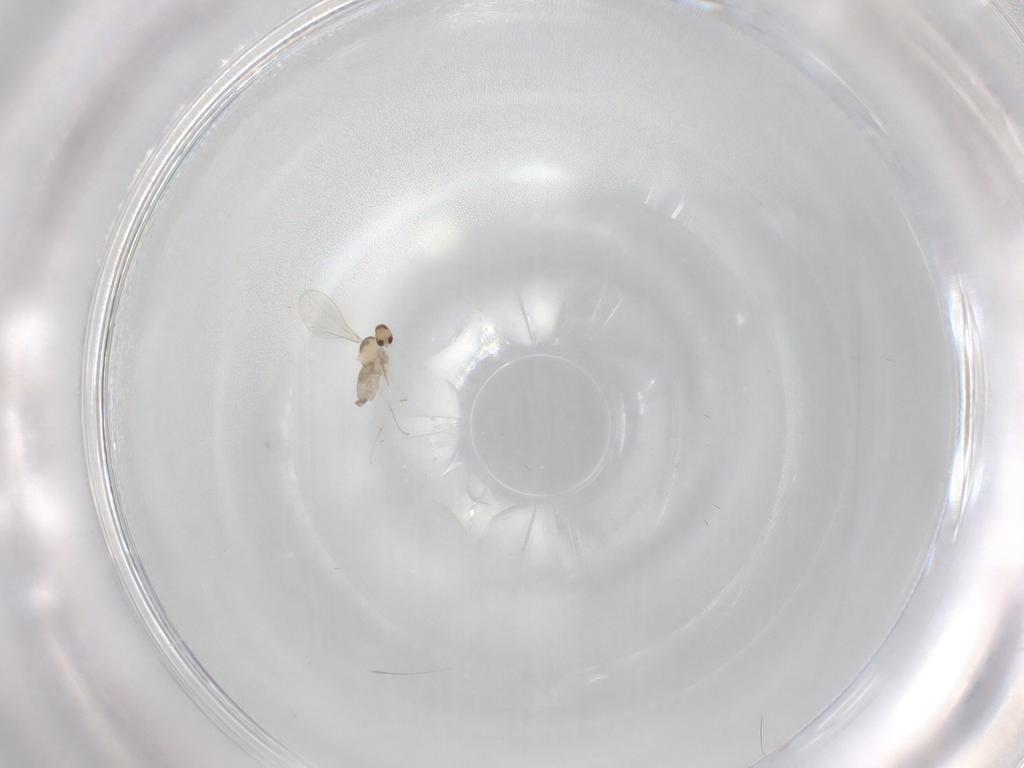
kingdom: Animalia
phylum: Arthropoda
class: Insecta
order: Diptera
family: Cecidomyiidae
